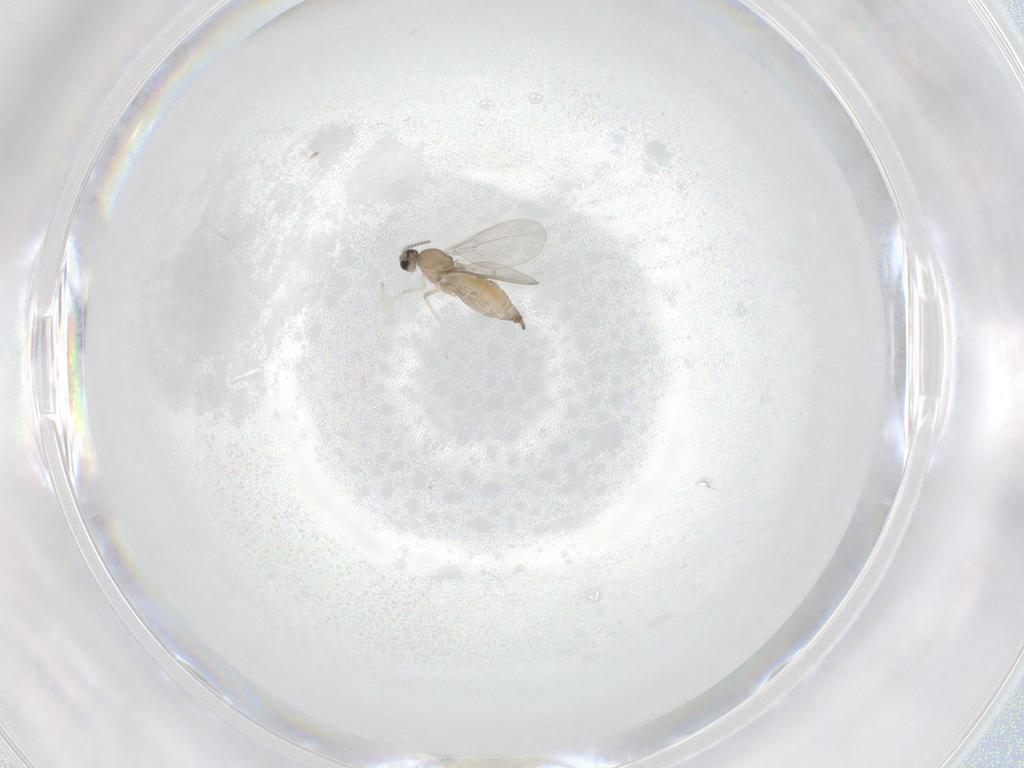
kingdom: Animalia
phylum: Arthropoda
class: Insecta
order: Diptera
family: Cecidomyiidae
